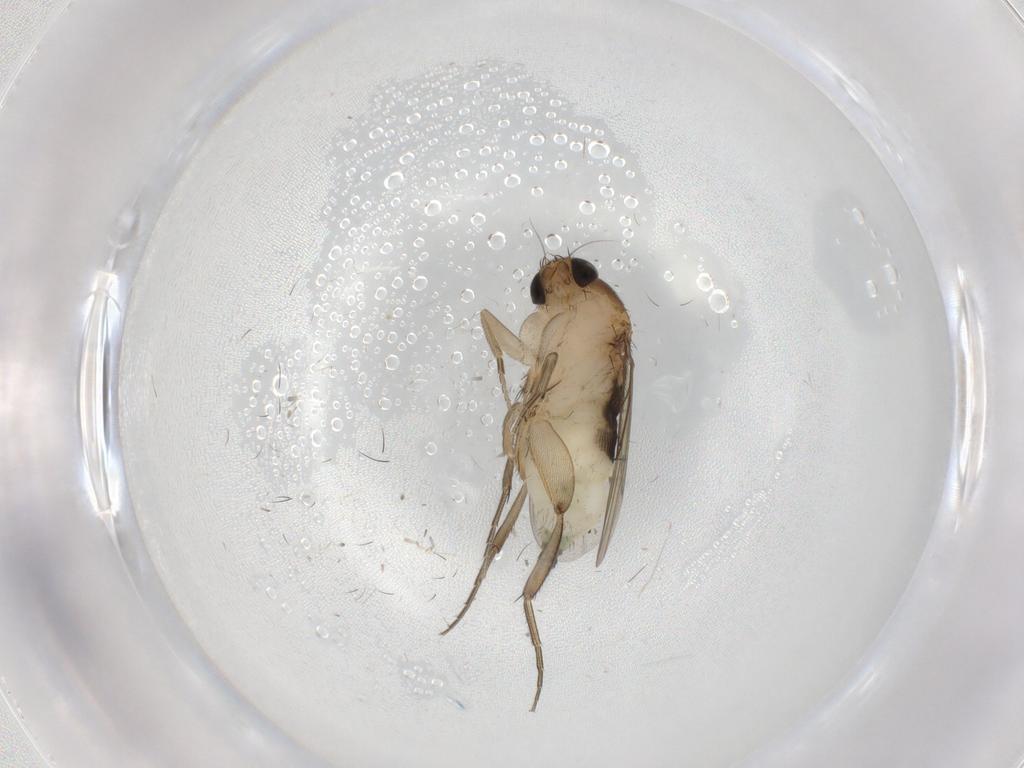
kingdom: Animalia
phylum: Arthropoda
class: Insecta
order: Diptera
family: Phoridae
